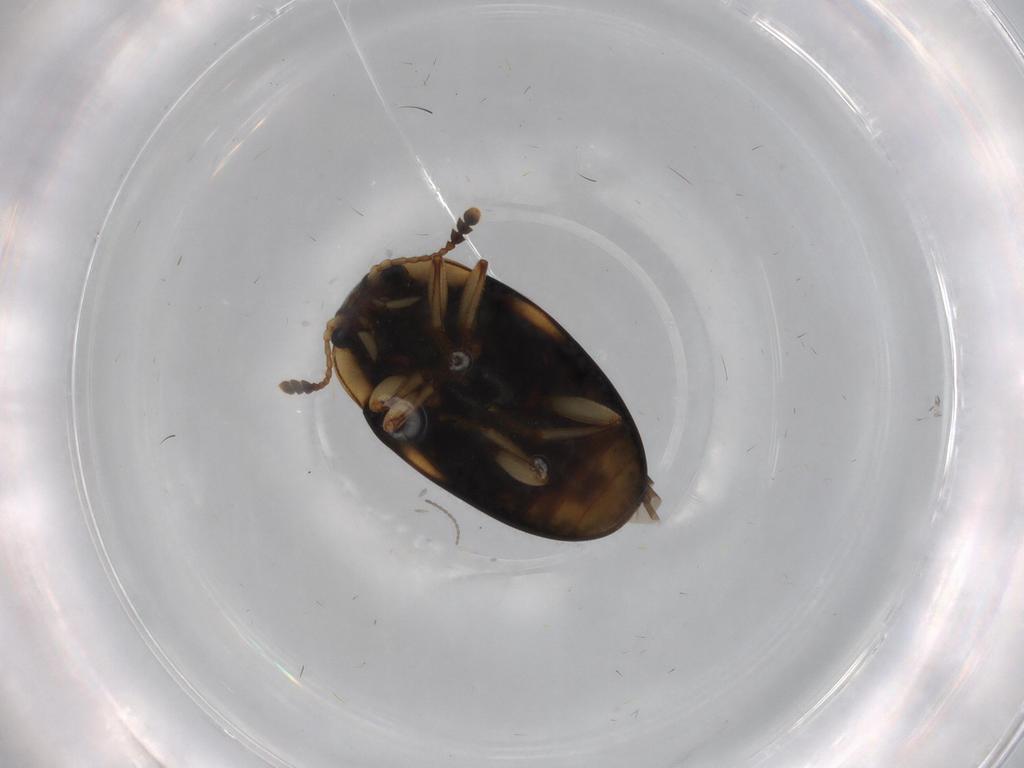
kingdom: Animalia
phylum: Arthropoda
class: Insecta
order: Coleoptera
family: Erotylidae
